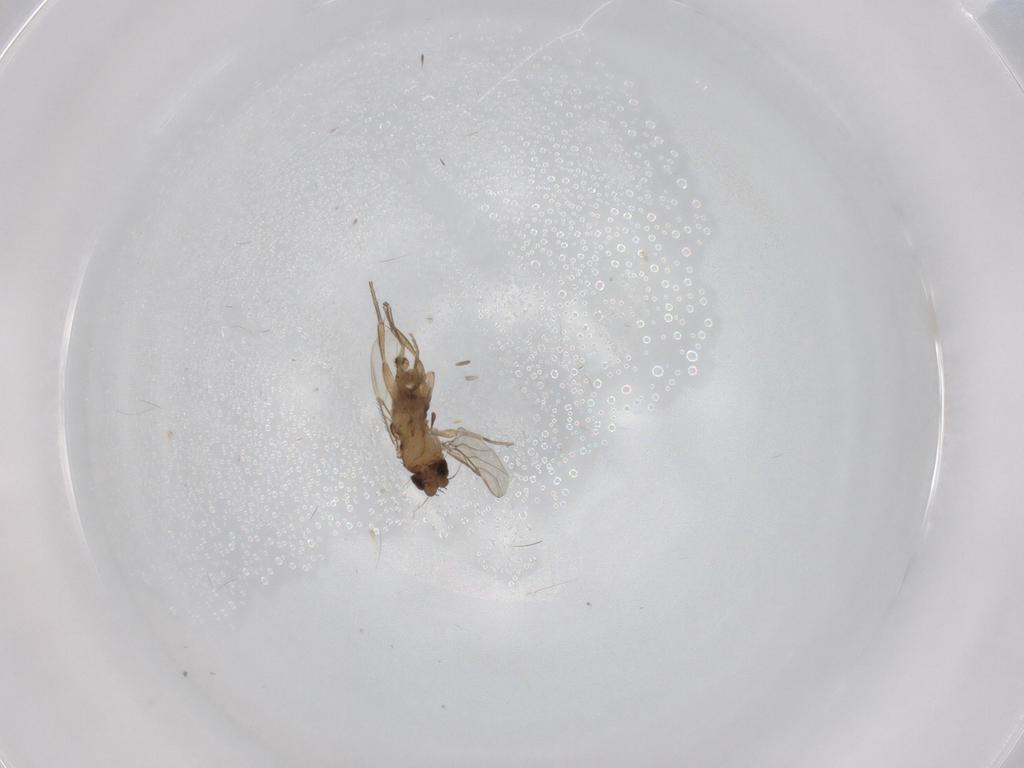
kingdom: Animalia
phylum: Arthropoda
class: Insecta
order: Diptera
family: Phoridae
